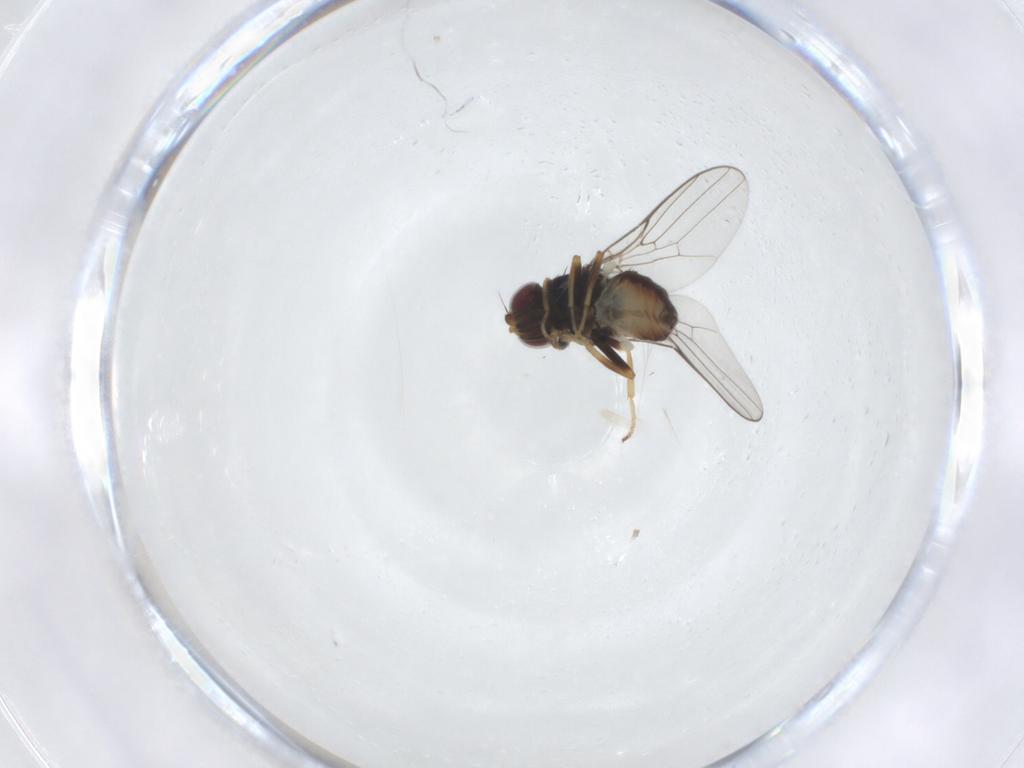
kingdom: Animalia
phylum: Arthropoda
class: Insecta
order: Diptera
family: Chloropidae
